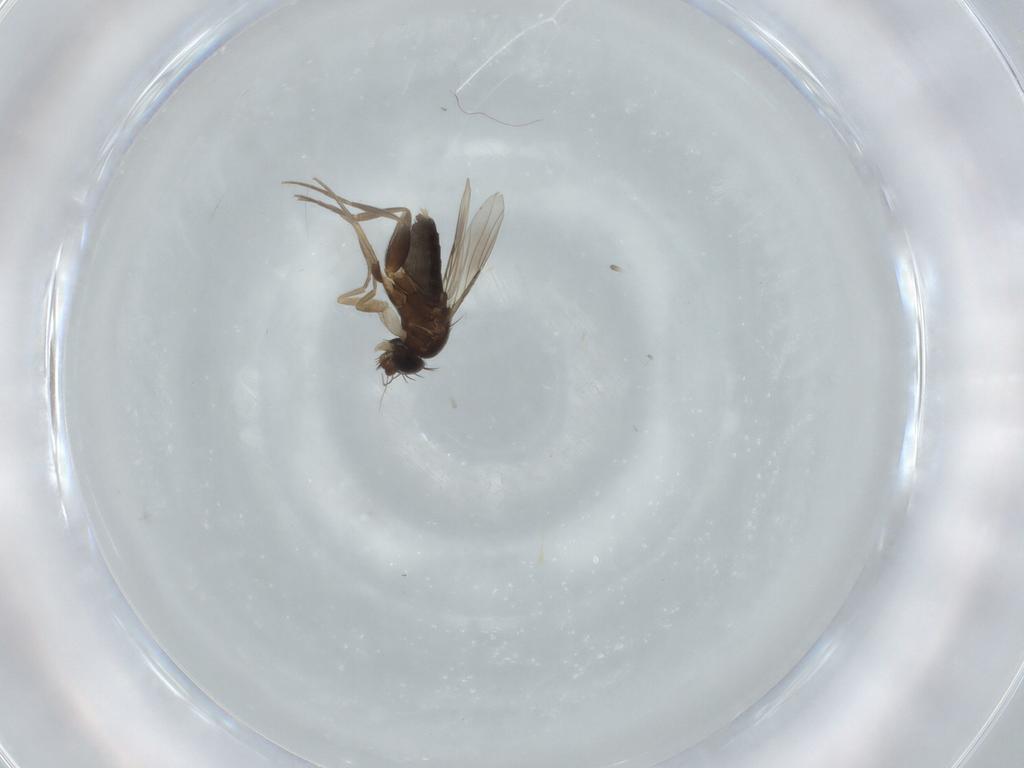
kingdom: Animalia
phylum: Arthropoda
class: Insecta
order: Diptera
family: Phoridae
